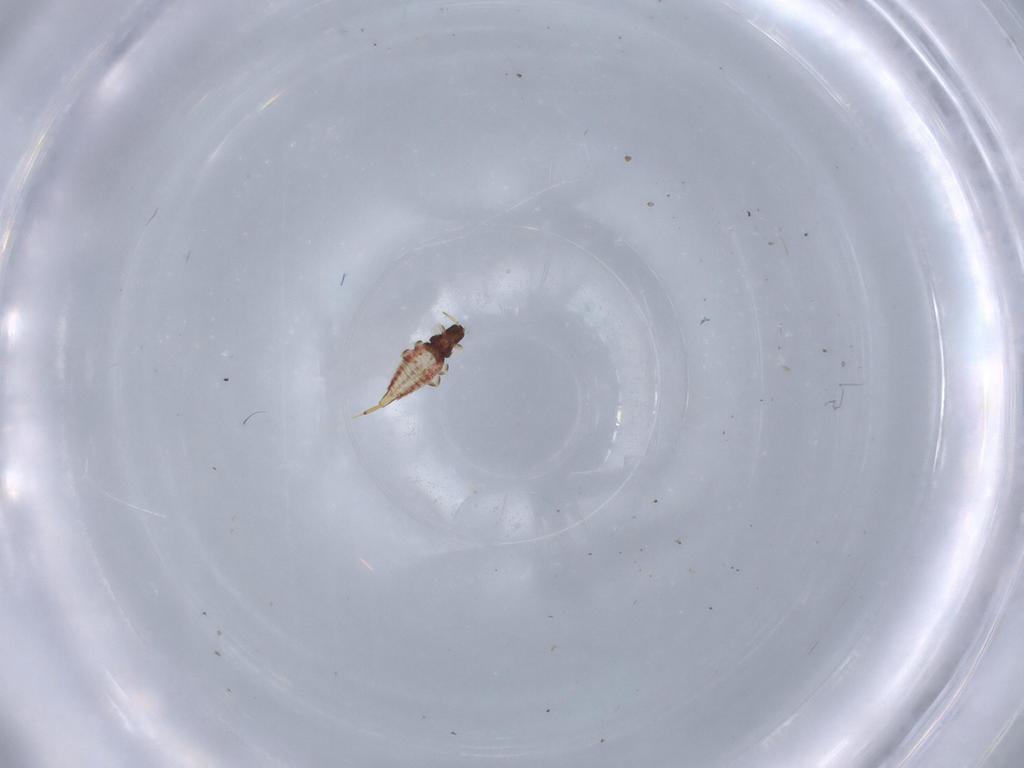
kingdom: Animalia
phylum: Arthropoda
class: Insecta
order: Thysanoptera
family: Phlaeothripidae
